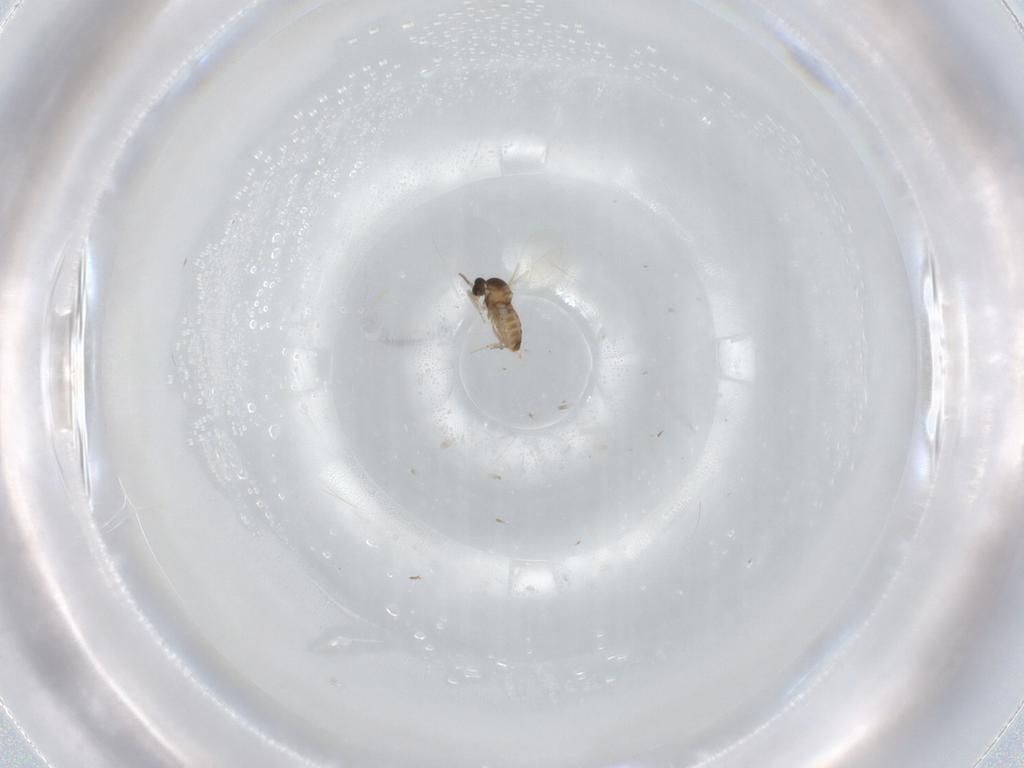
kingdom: Animalia
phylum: Arthropoda
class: Insecta
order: Diptera
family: Cecidomyiidae
